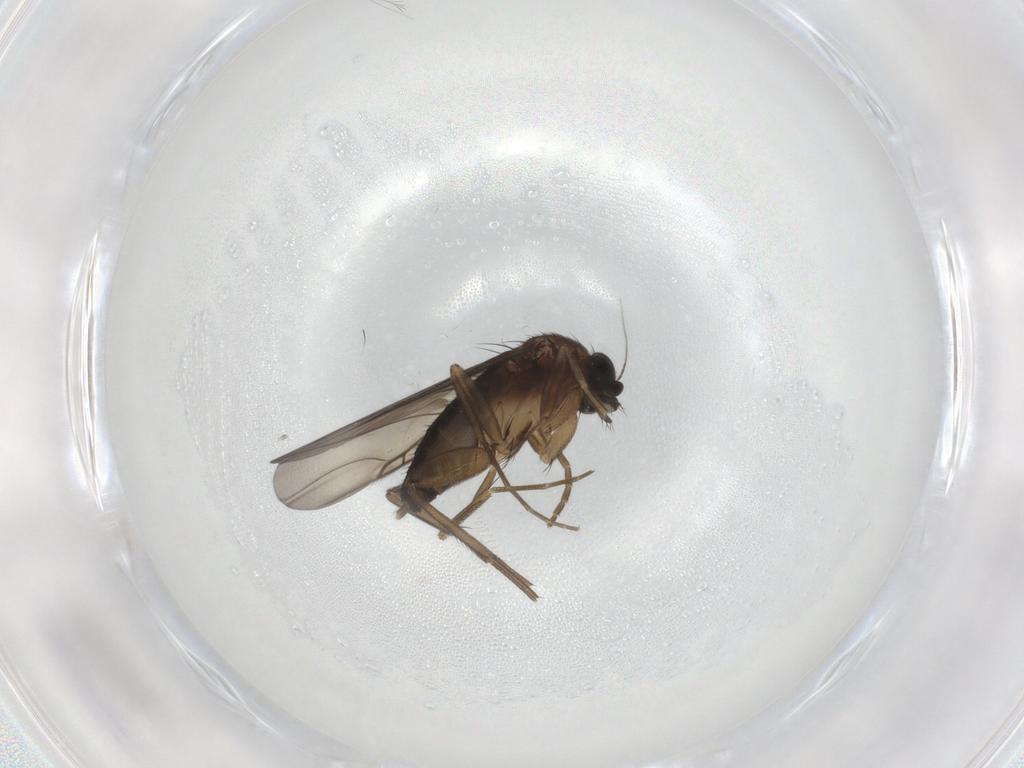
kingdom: Animalia
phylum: Arthropoda
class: Insecta
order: Diptera
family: Phoridae
